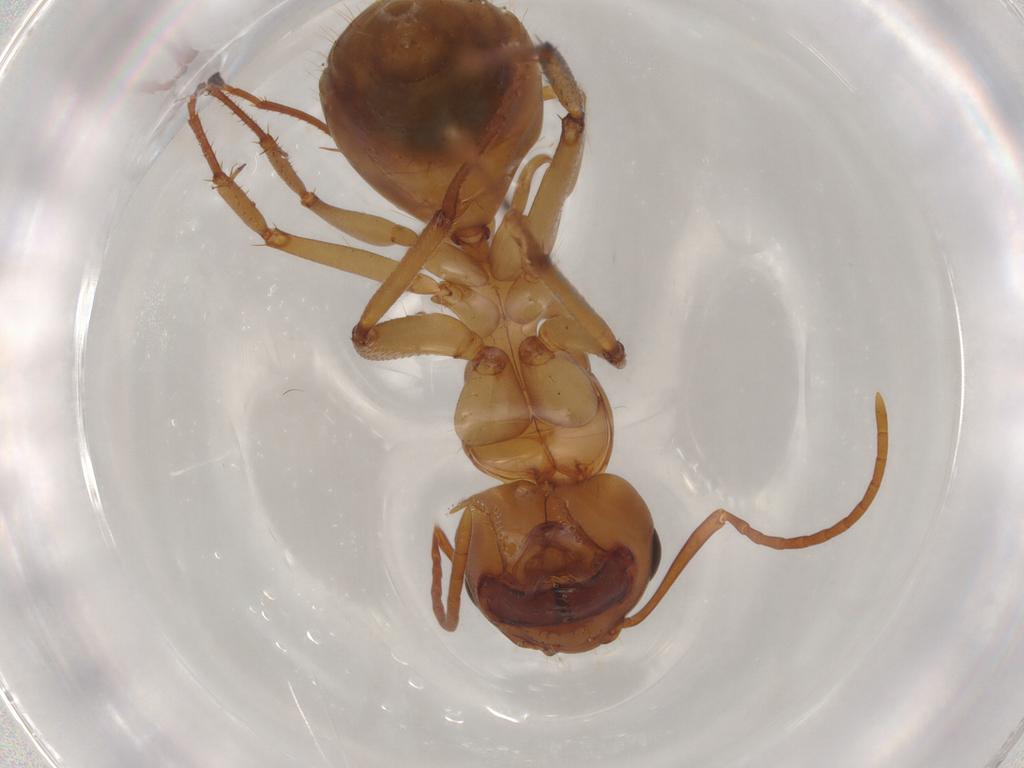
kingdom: Animalia
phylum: Arthropoda
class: Insecta
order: Hymenoptera
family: Formicidae
